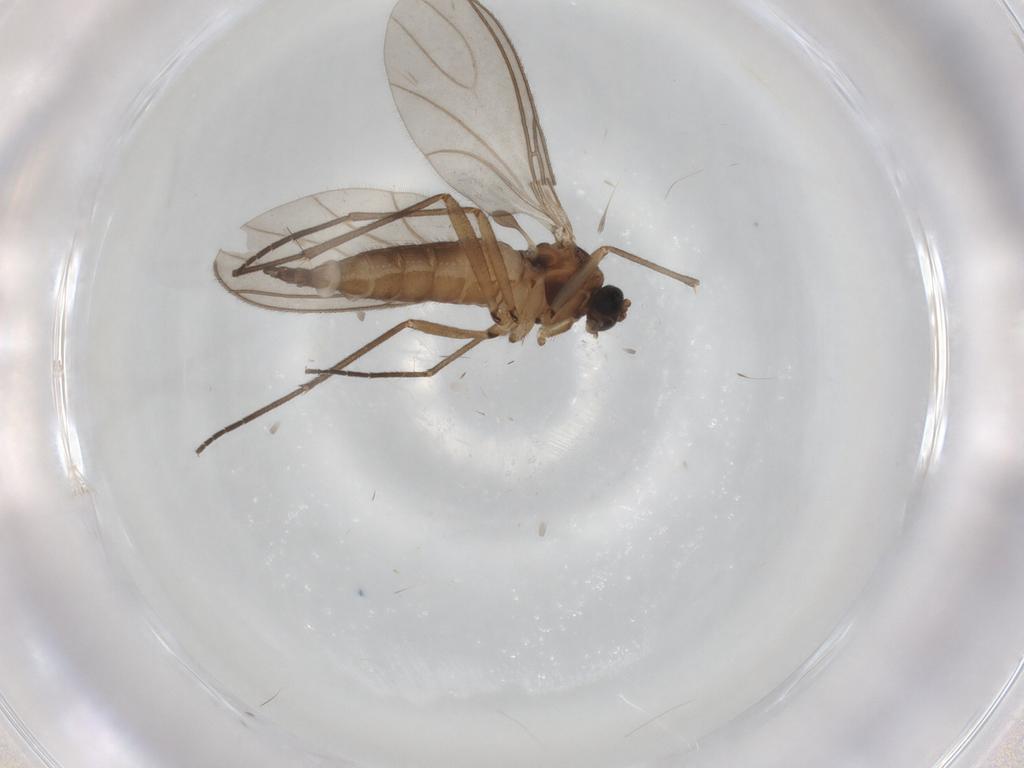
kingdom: Animalia
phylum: Arthropoda
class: Insecta
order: Diptera
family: Sciaridae
